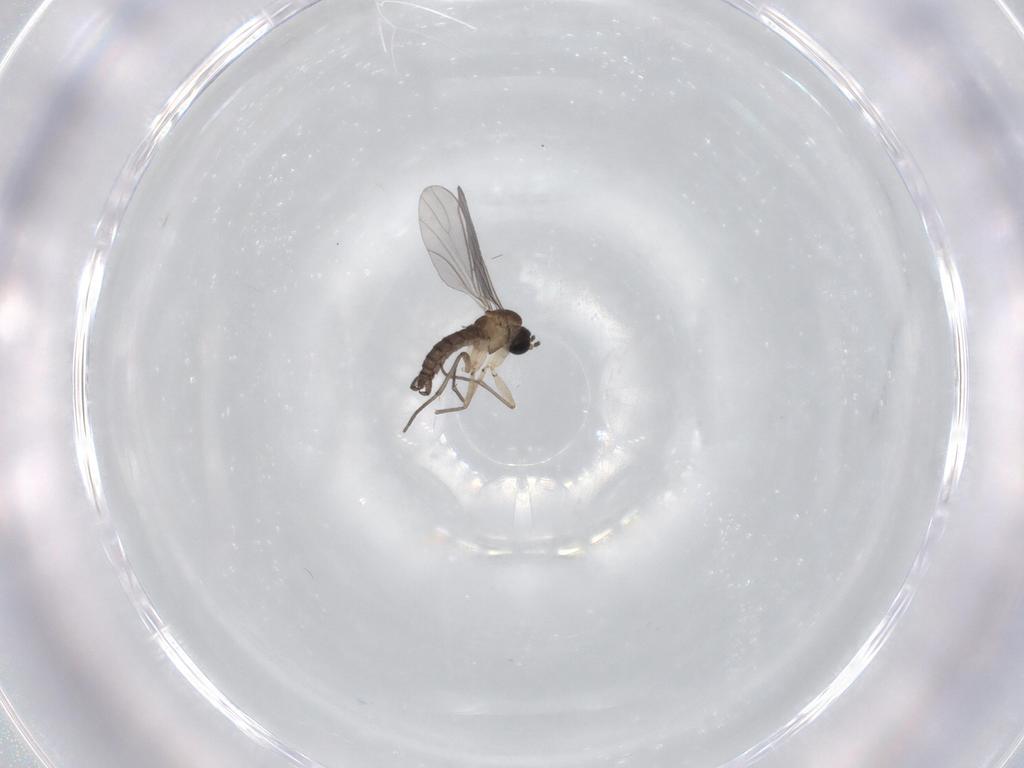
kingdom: Animalia
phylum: Arthropoda
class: Insecta
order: Diptera
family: Sciaridae
